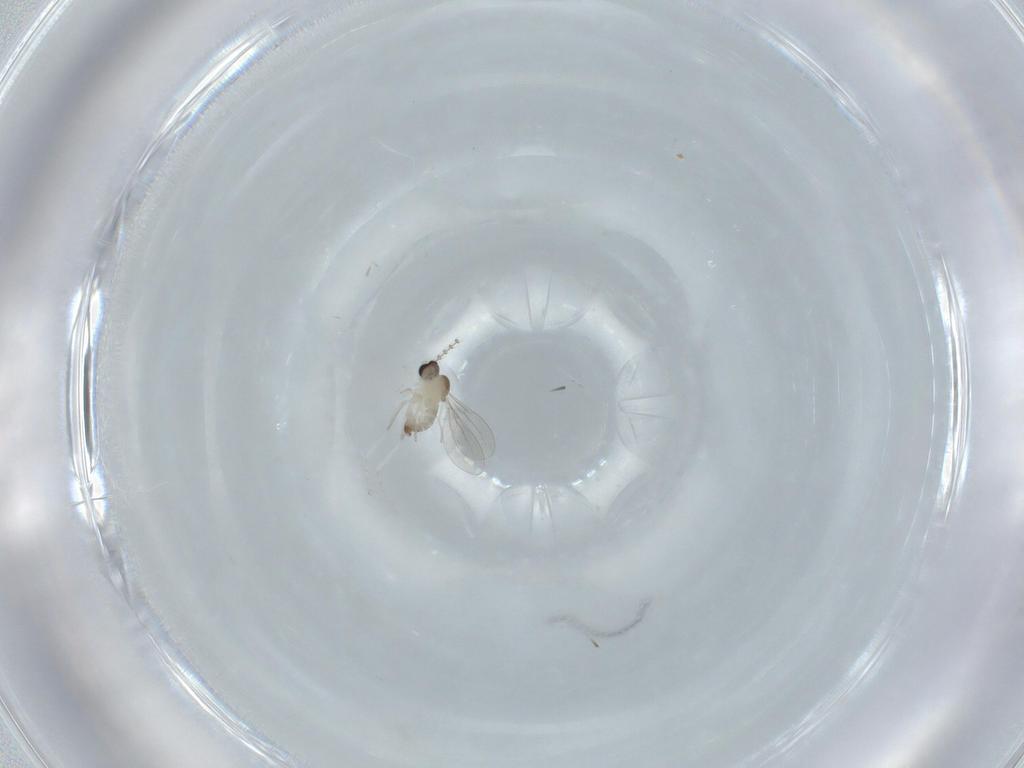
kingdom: Animalia
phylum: Arthropoda
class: Insecta
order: Diptera
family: Cecidomyiidae
